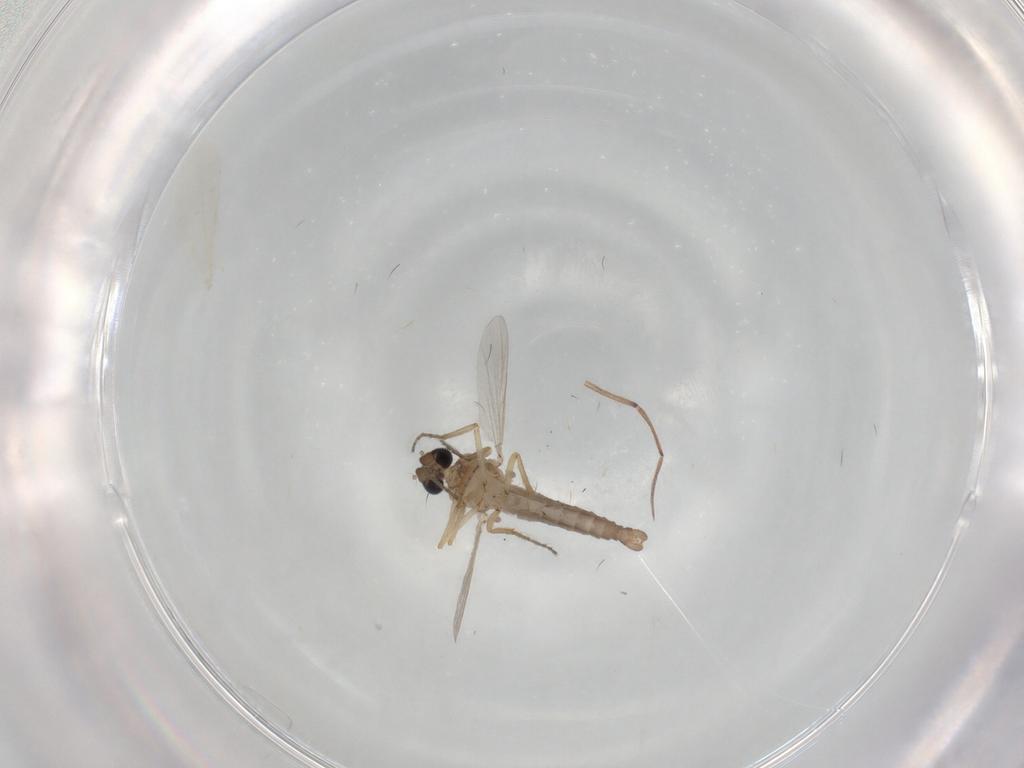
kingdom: Animalia
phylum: Arthropoda
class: Insecta
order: Diptera
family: Ceratopogonidae
